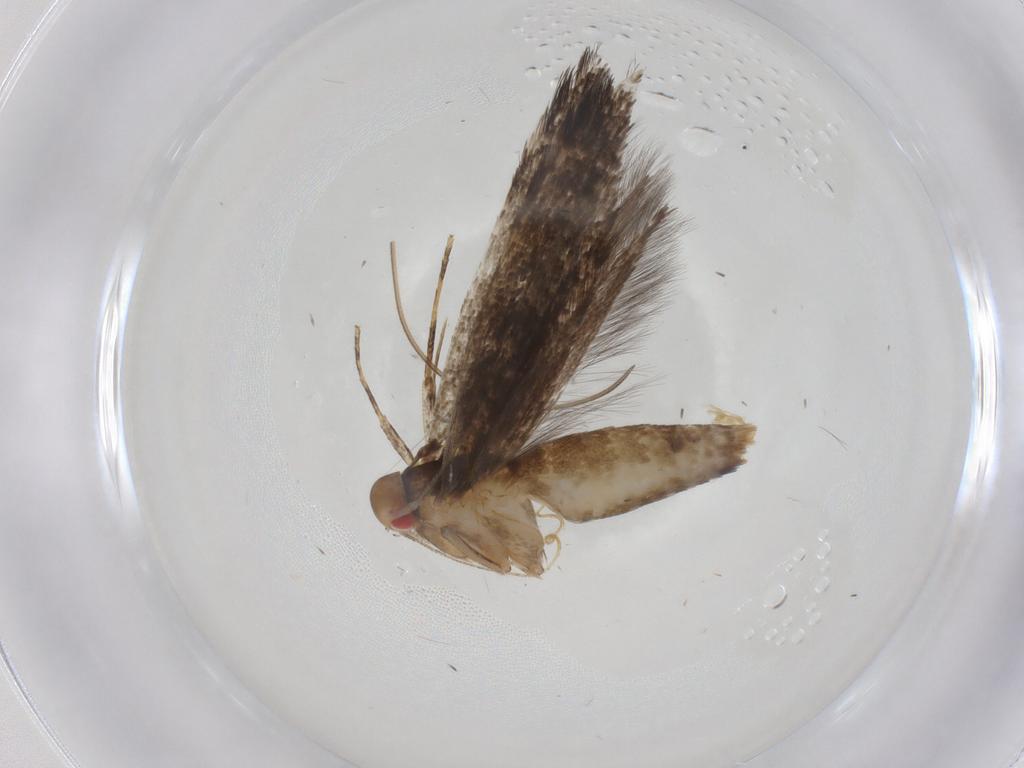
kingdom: Animalia
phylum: Arthropoda
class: Insecta
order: Lepidoptera
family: Cosmopterigidae
